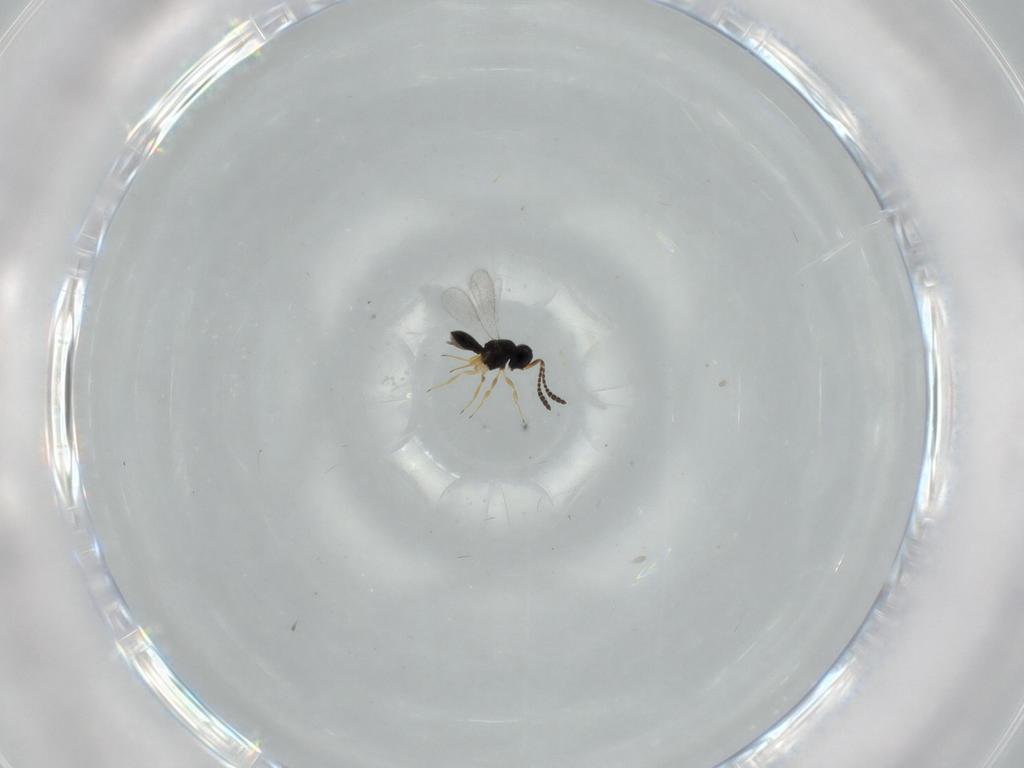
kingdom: Animalia
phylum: Arthropoda
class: Insecta
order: Hymenoptera
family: Scelionidae
